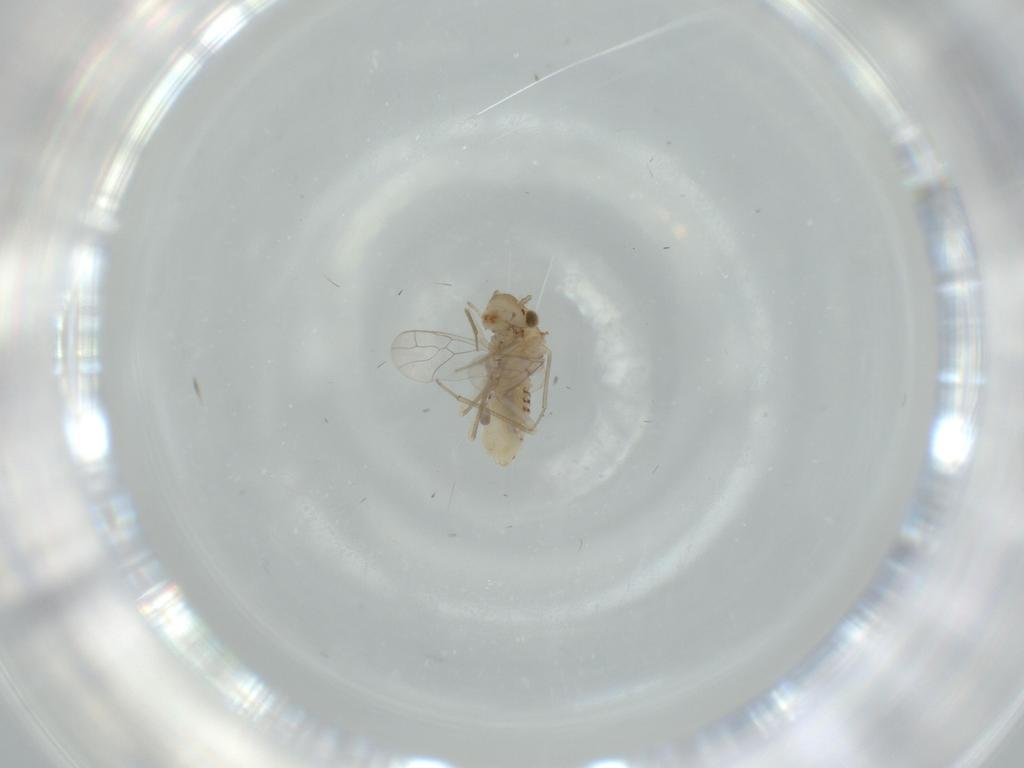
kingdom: Animalia
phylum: Arthropoda
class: Insecta
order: Psocodea
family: Lachesillidae
